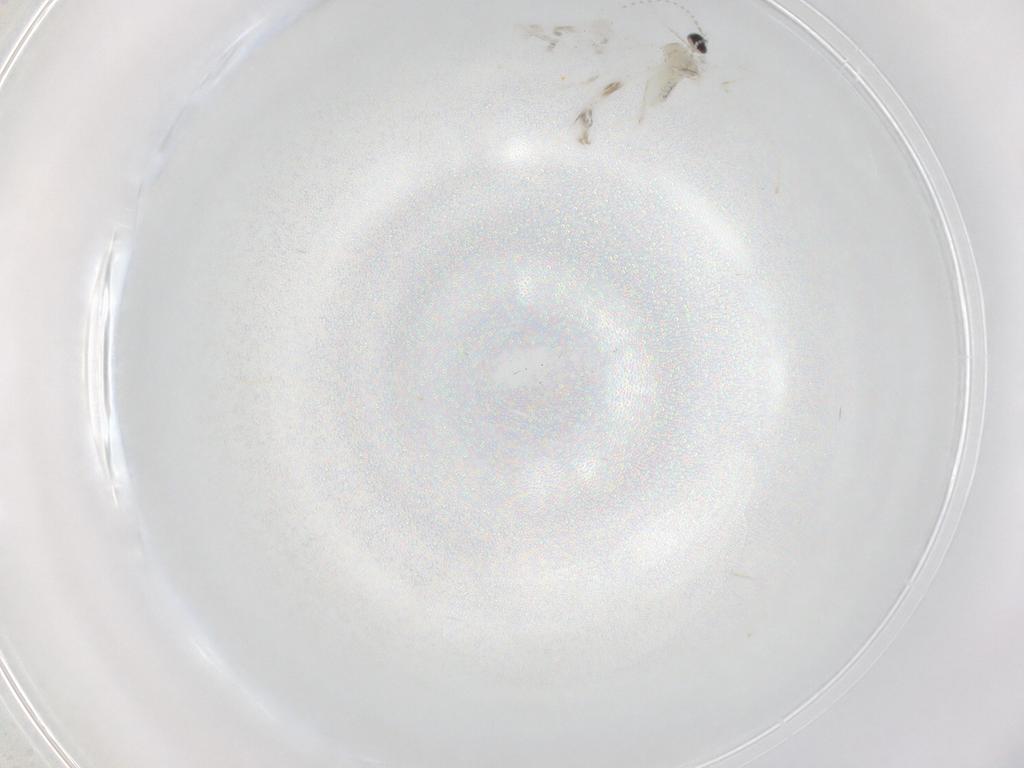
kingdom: Animalia
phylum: Arthropoda
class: Insecta
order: Diptera
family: Cecidomyiidae
